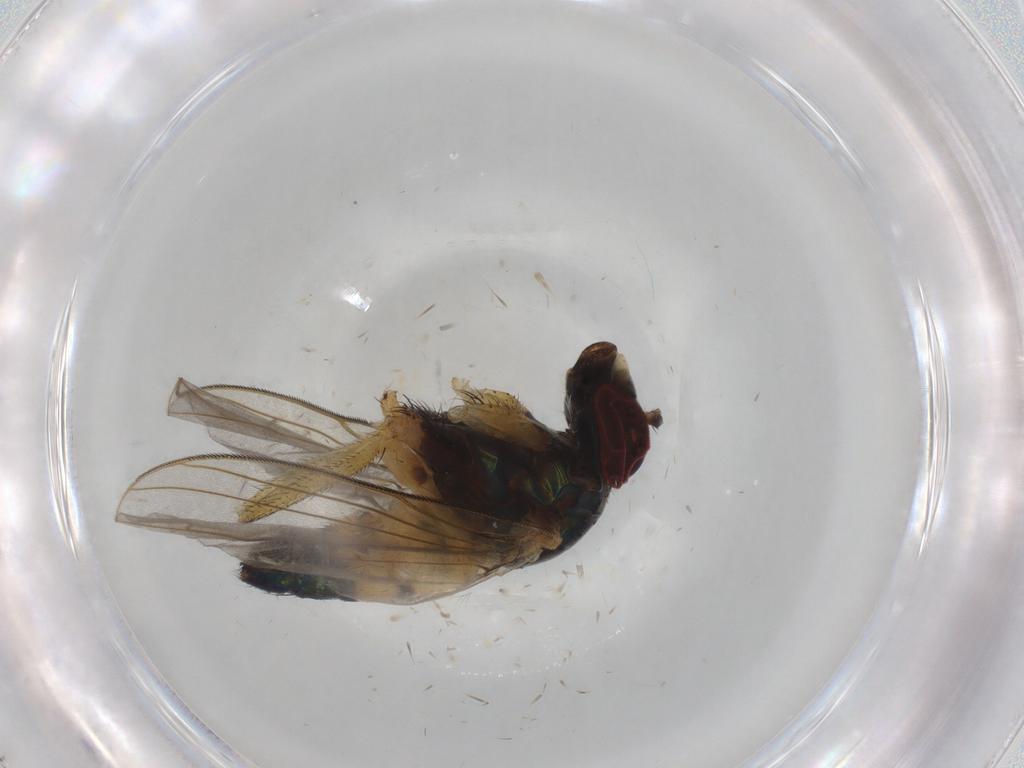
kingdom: Animalia
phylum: Arthropoda
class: Insecta
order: Diptera
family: Dolichopodidae
